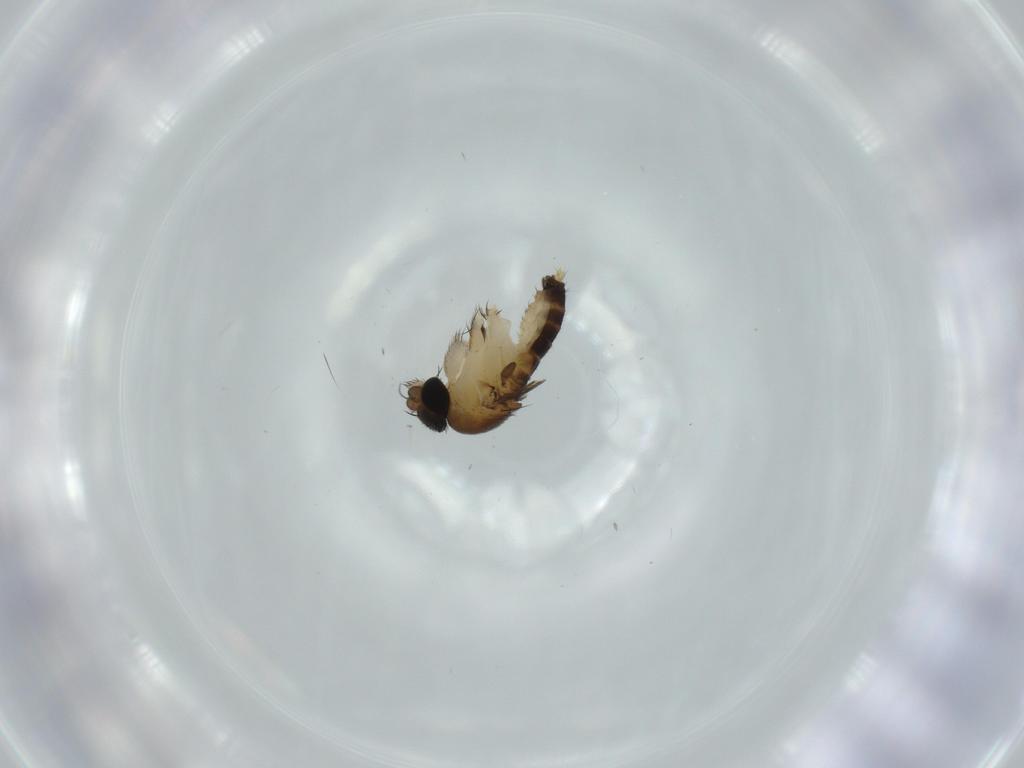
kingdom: Animalia
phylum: Arthropoda
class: Insecta
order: Diptera
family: Phoridae
